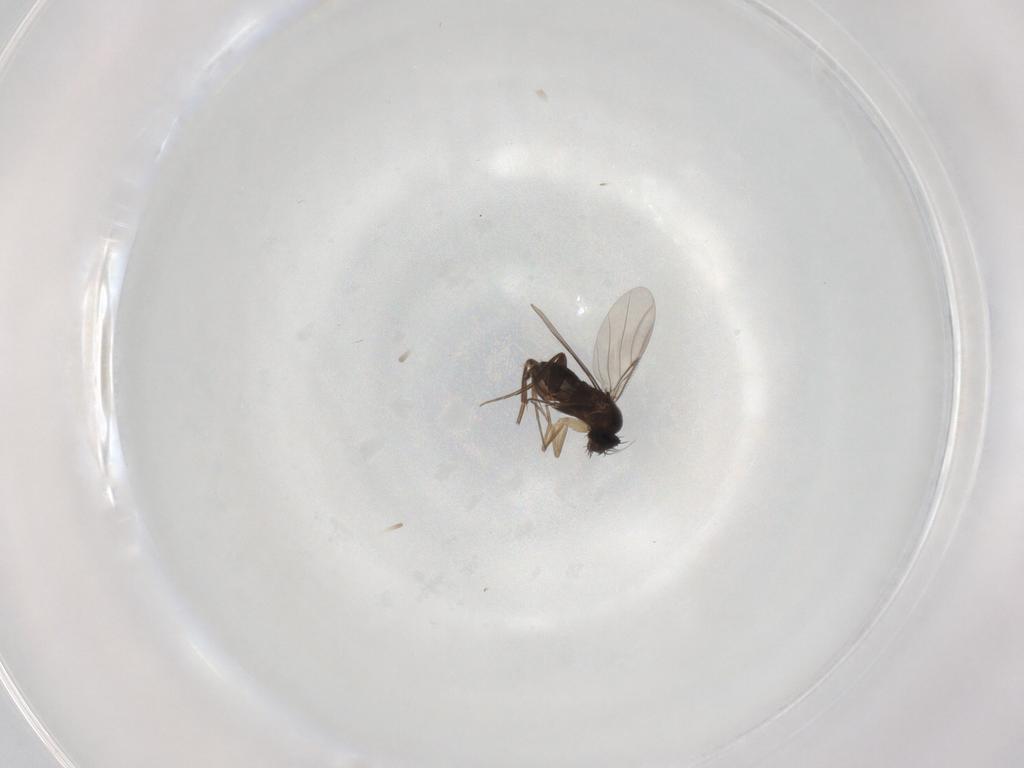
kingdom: Animalia
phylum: Arthropoda
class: Insecta
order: Diptera
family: Phoridae
